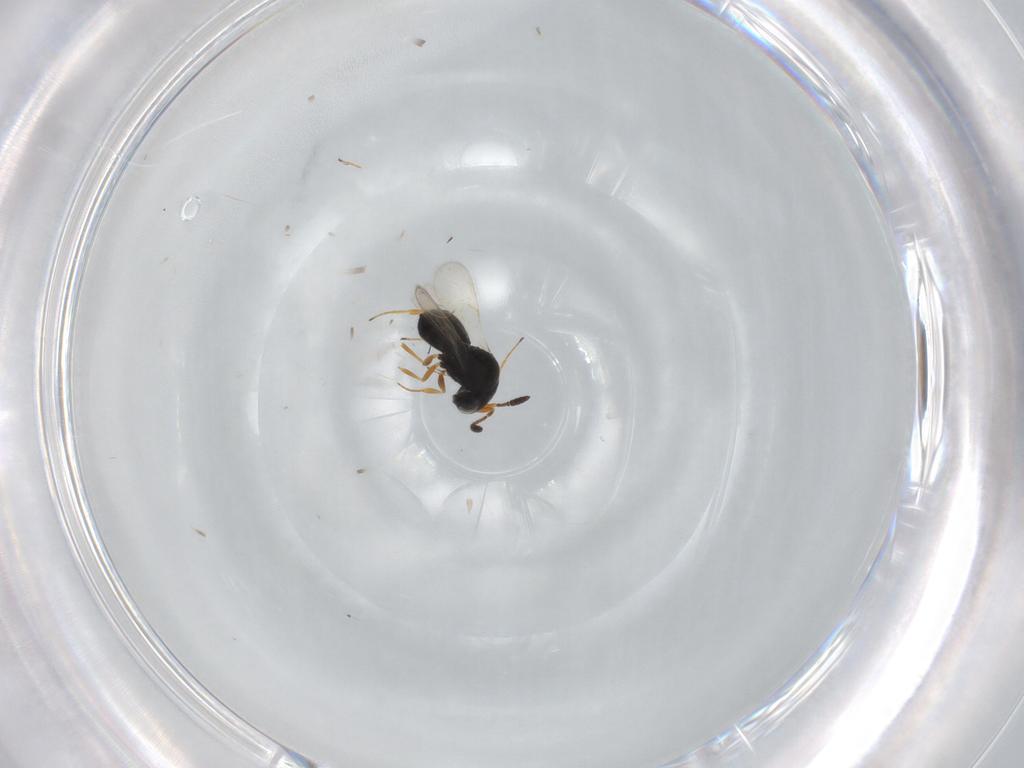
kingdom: Animalia
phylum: Arthropoda
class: Insecta
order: Hymenoptera
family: Scelionidae
